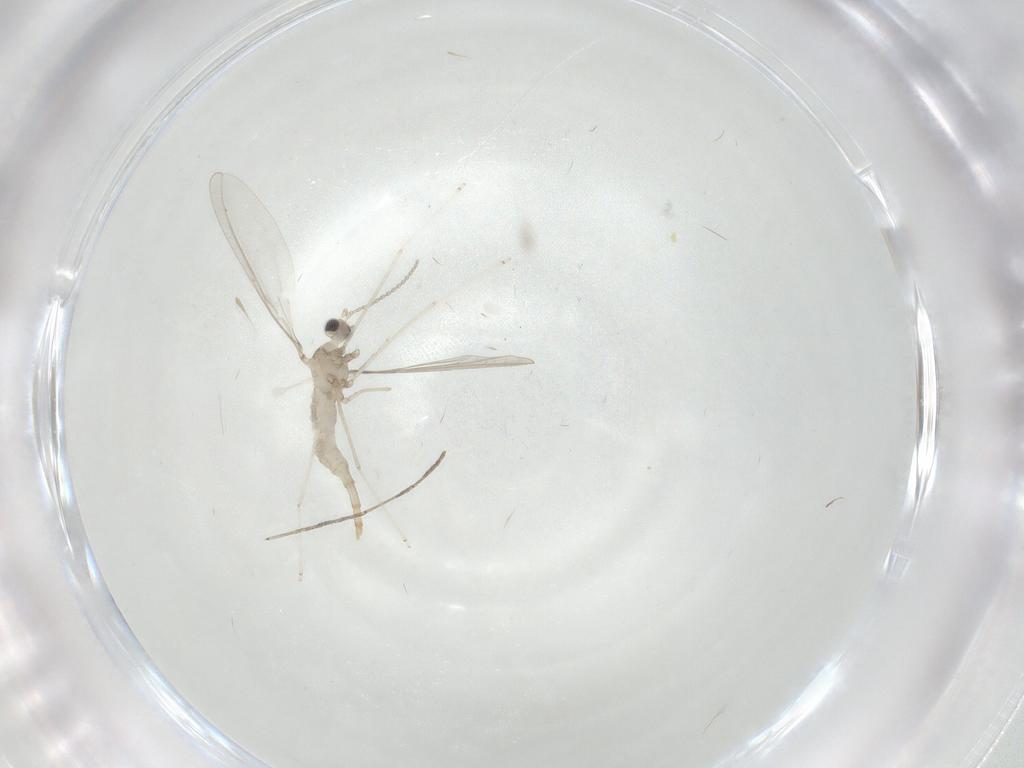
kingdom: Animalia
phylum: Arthropoda
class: Insecta
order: Diptera
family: Cecidomyiidae
